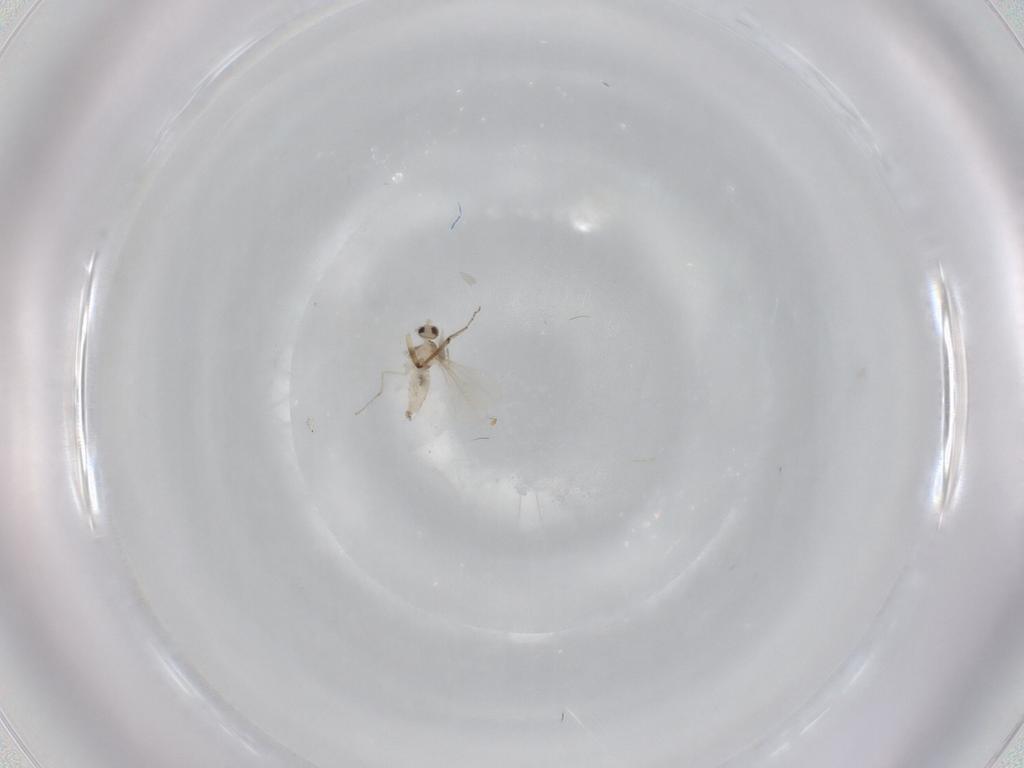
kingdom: Animalia
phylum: Arthropoda
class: Insecta
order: Diptera
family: Cecidomyiidae
